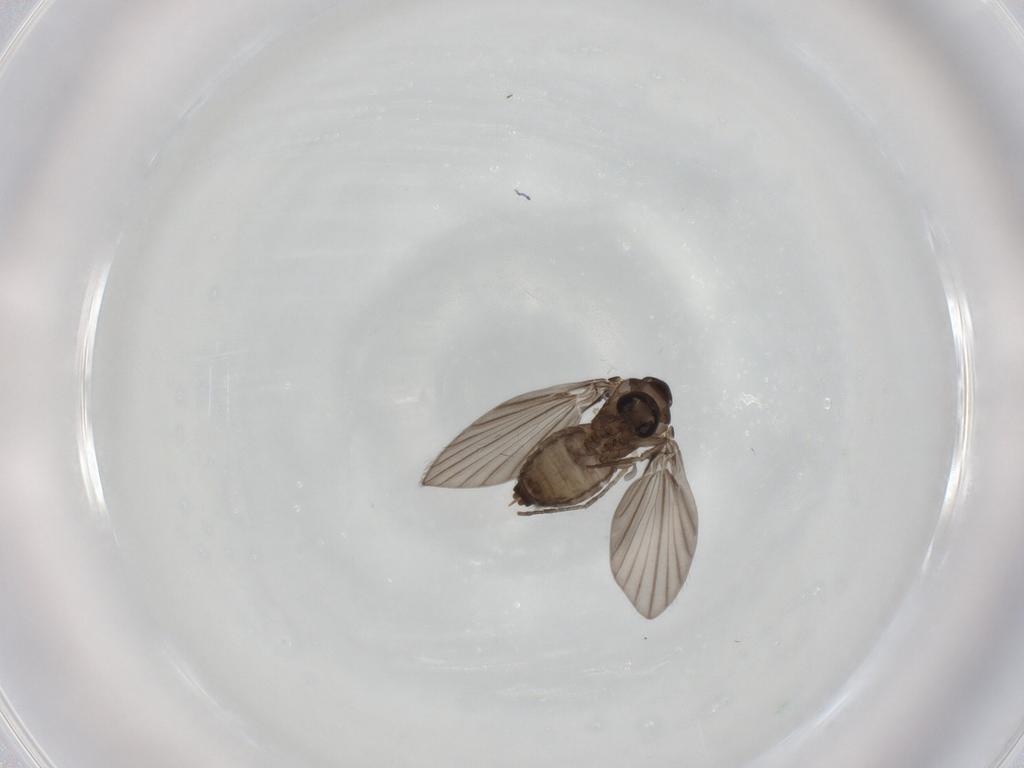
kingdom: Animalia
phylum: Arthropoda
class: Insecta
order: Diptera
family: Psychodidae
